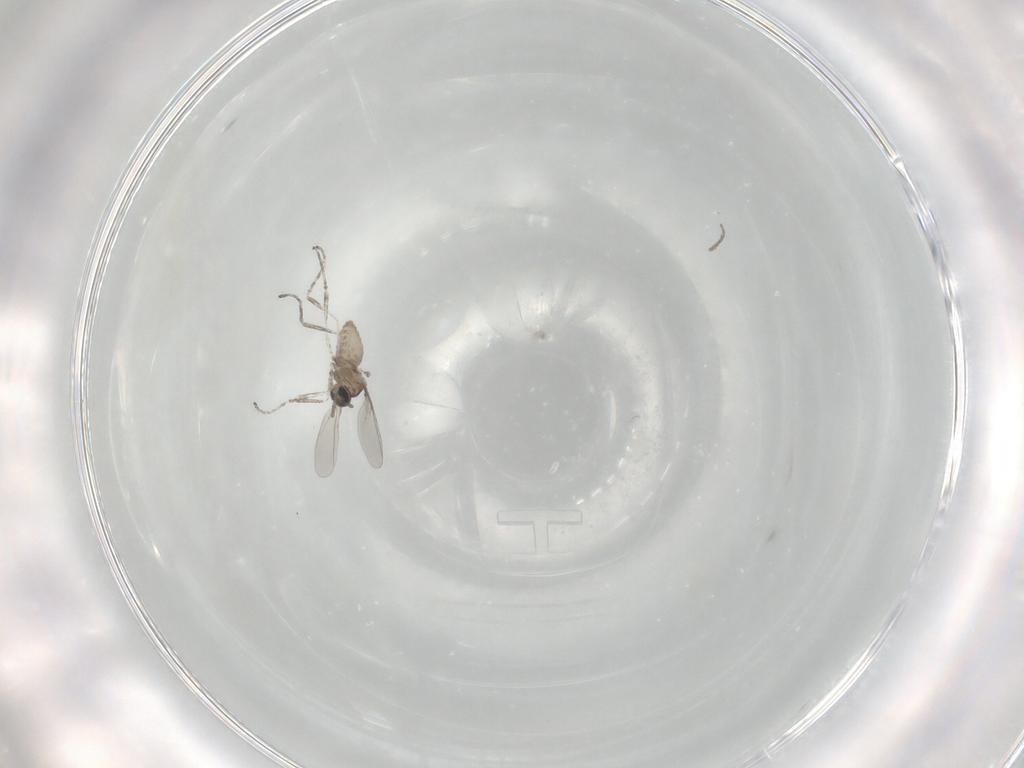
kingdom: Animalia
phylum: Arthropoda
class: Insecta
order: Diptera
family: Cecidomyiidae
